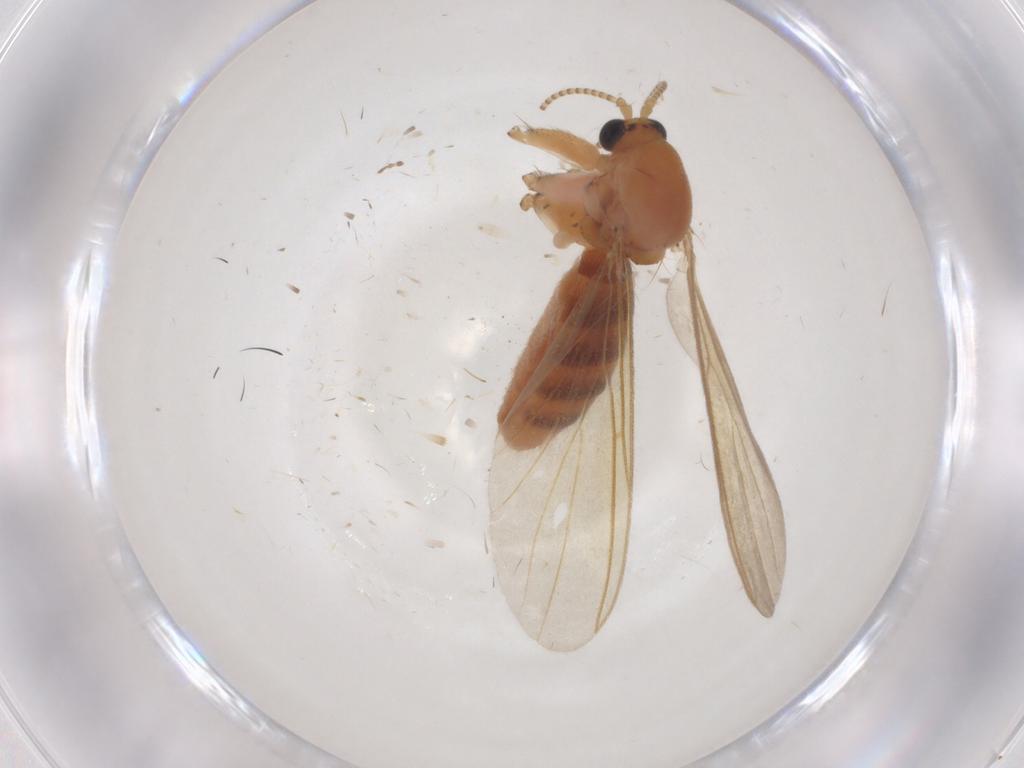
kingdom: Animalia
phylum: Arthropoda
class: Insecta
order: Diptera
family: Mycetophilidae
